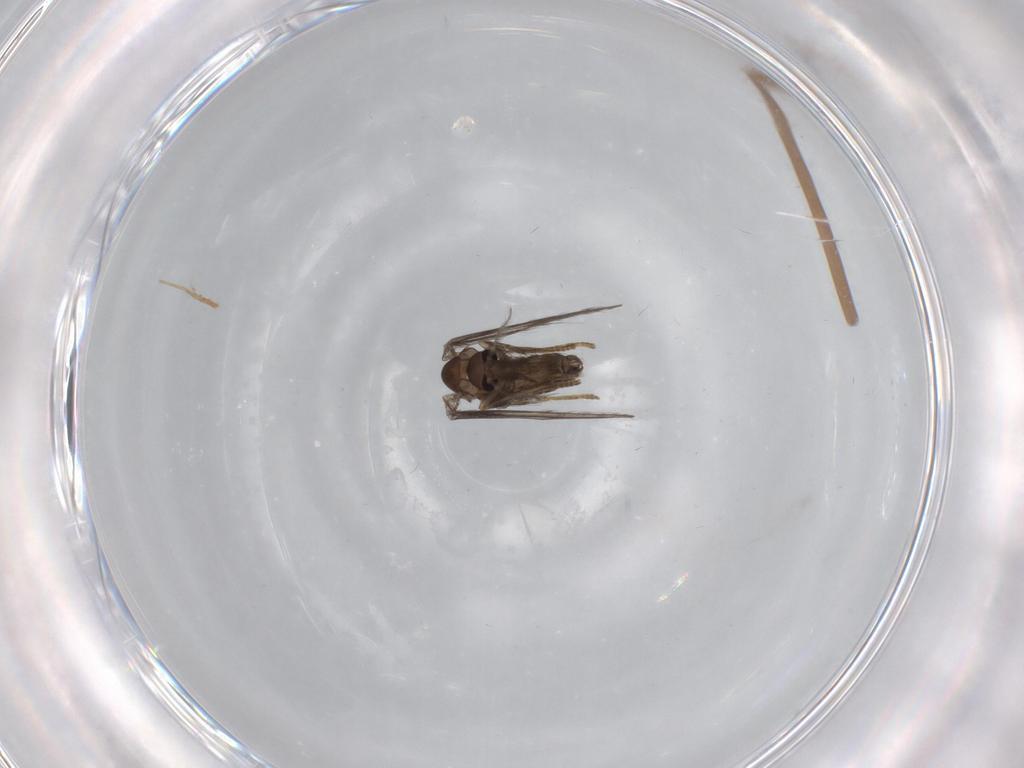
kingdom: Animalia
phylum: Arthropoda
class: Insecta
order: Diptera
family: Psychodidae
